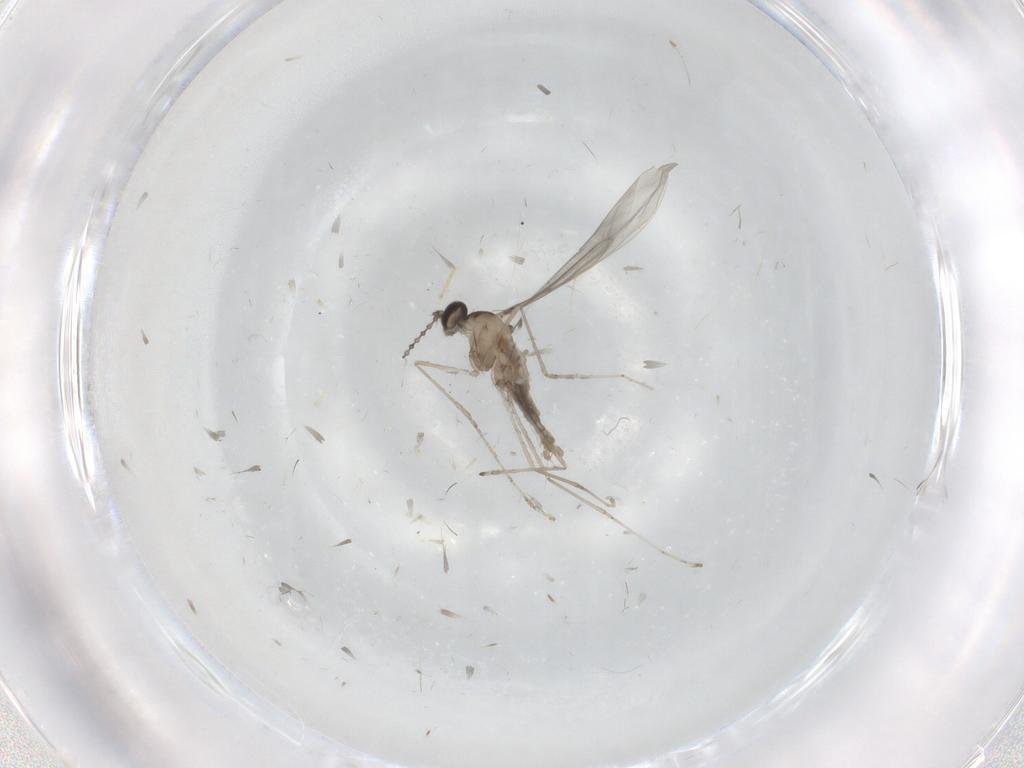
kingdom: Animalia
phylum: Arthropoda
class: Insecta
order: Diptera
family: Cecidomyiidae
